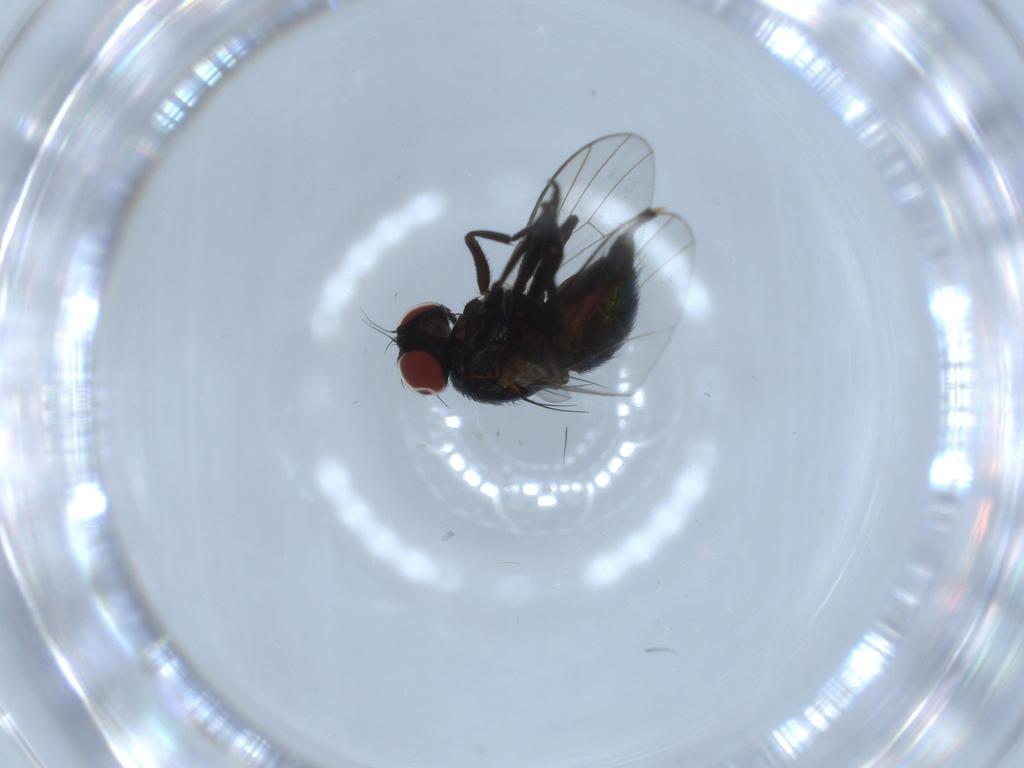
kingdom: Animalia
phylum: Arthropoda
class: Insecta
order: Diptera
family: Agromyzidae
